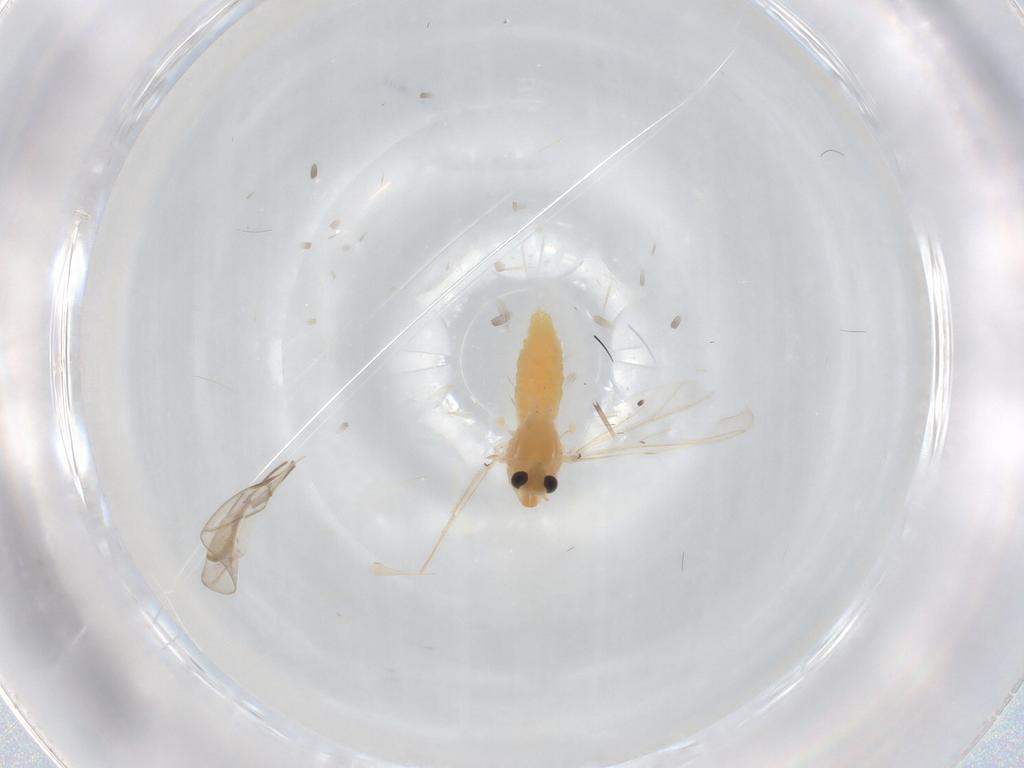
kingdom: Animalia
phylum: Arthropoda
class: Insecta
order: Diptera
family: Chironomidae
